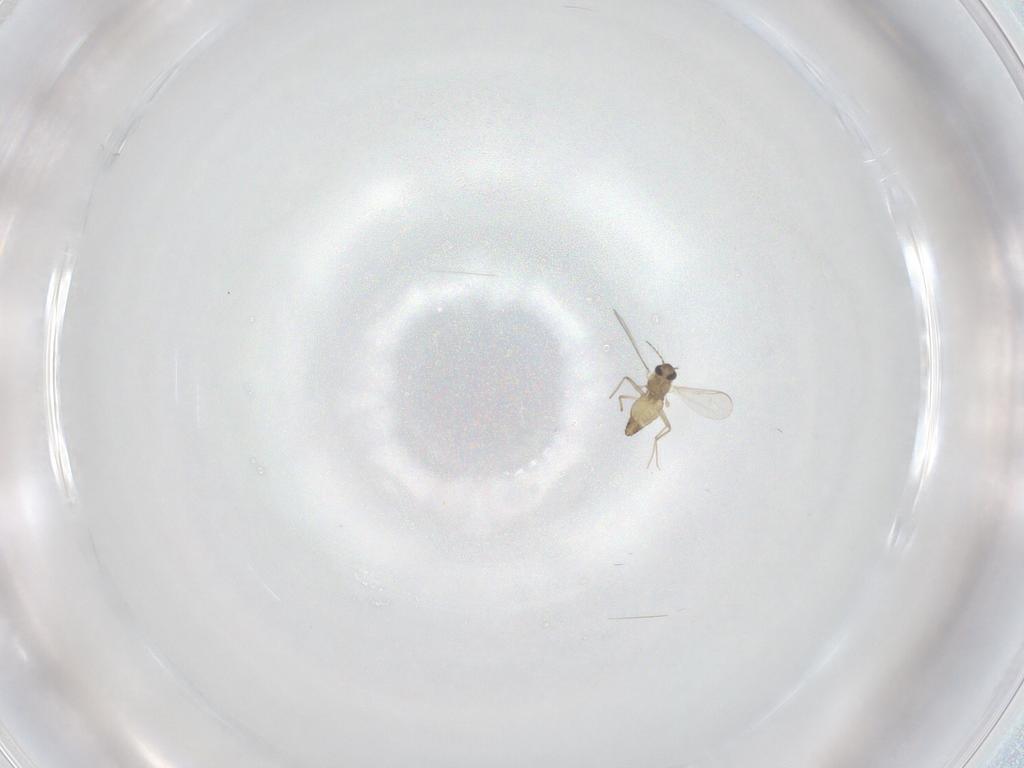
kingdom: Animalia
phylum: Arthropoda
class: Insecta
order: Diptera
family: Chironomidae
